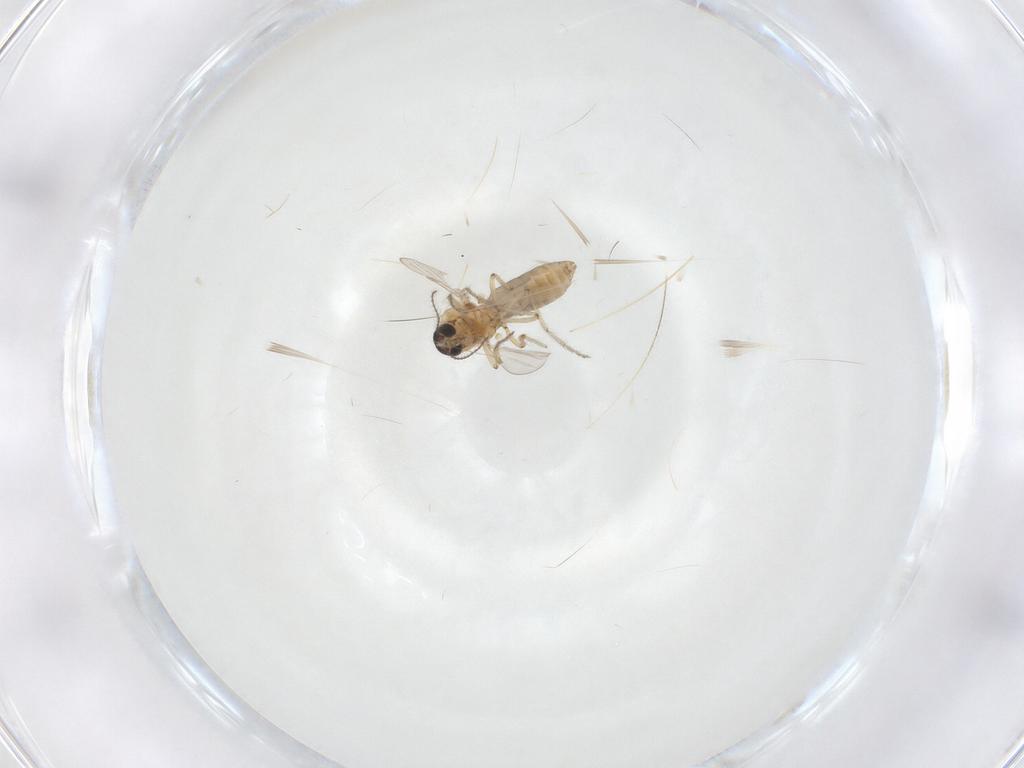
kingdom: Animalia
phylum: Arthropoda
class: Insecta
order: Diptera
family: Ceratopogonidae
